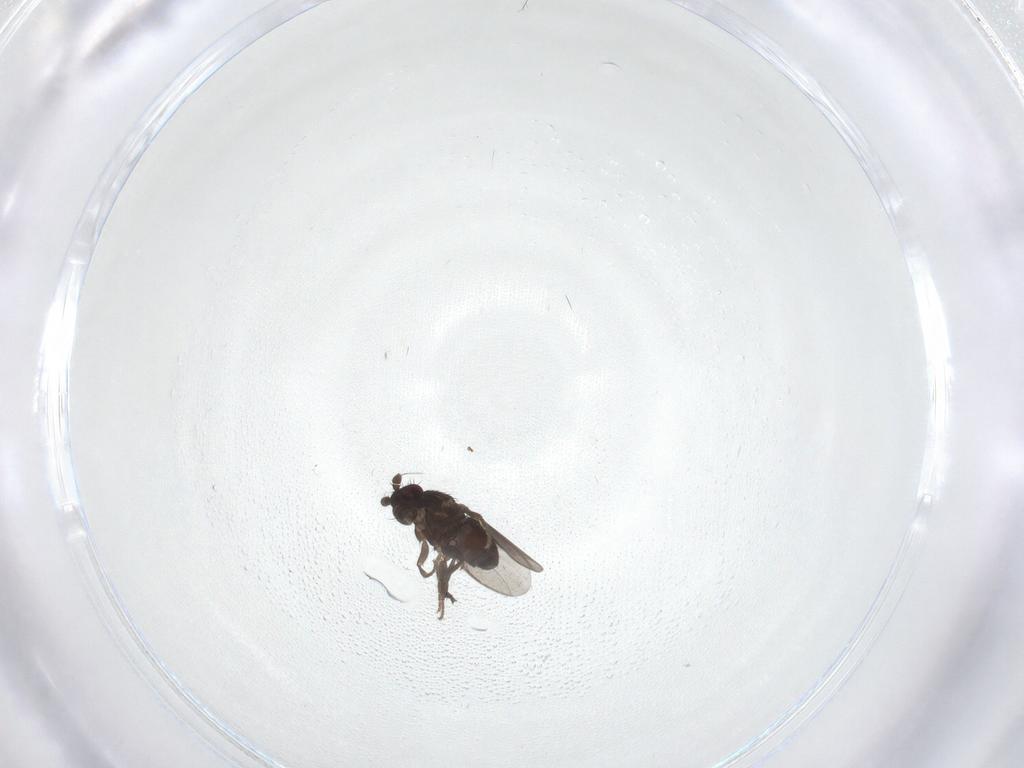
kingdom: Animalia
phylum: Arthropoda
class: Insecta
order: Diptera
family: Sphaeroceridae
